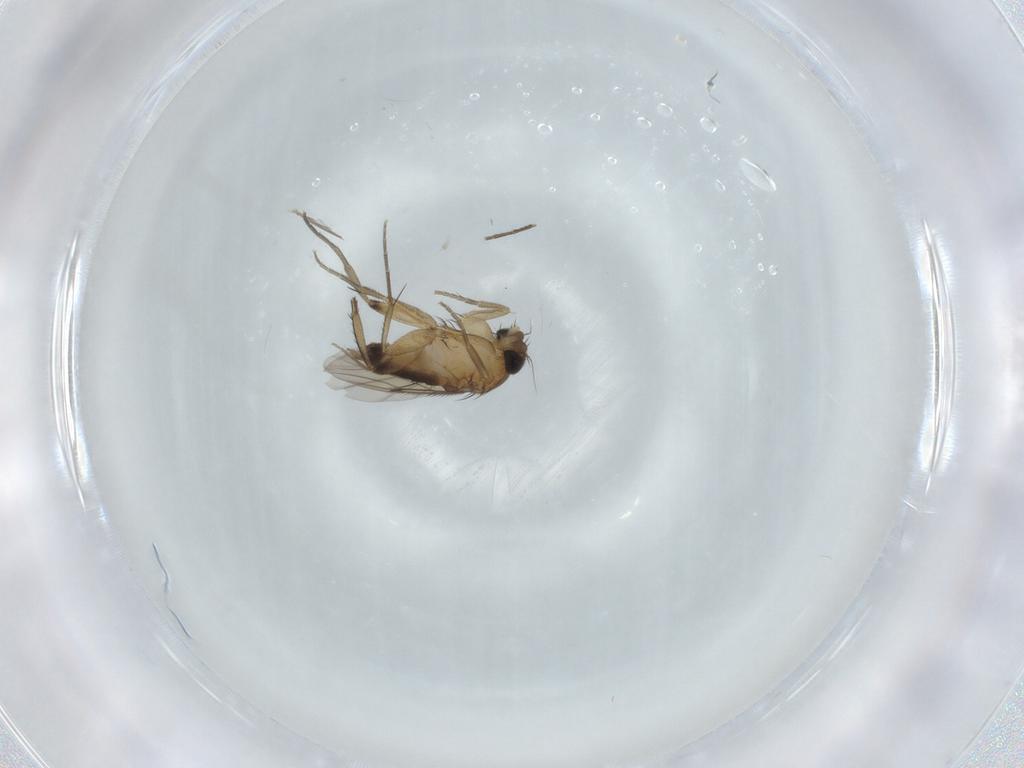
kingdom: Animalia
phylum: Arthropoda
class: Insecta
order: Diptera
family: Phoridae
